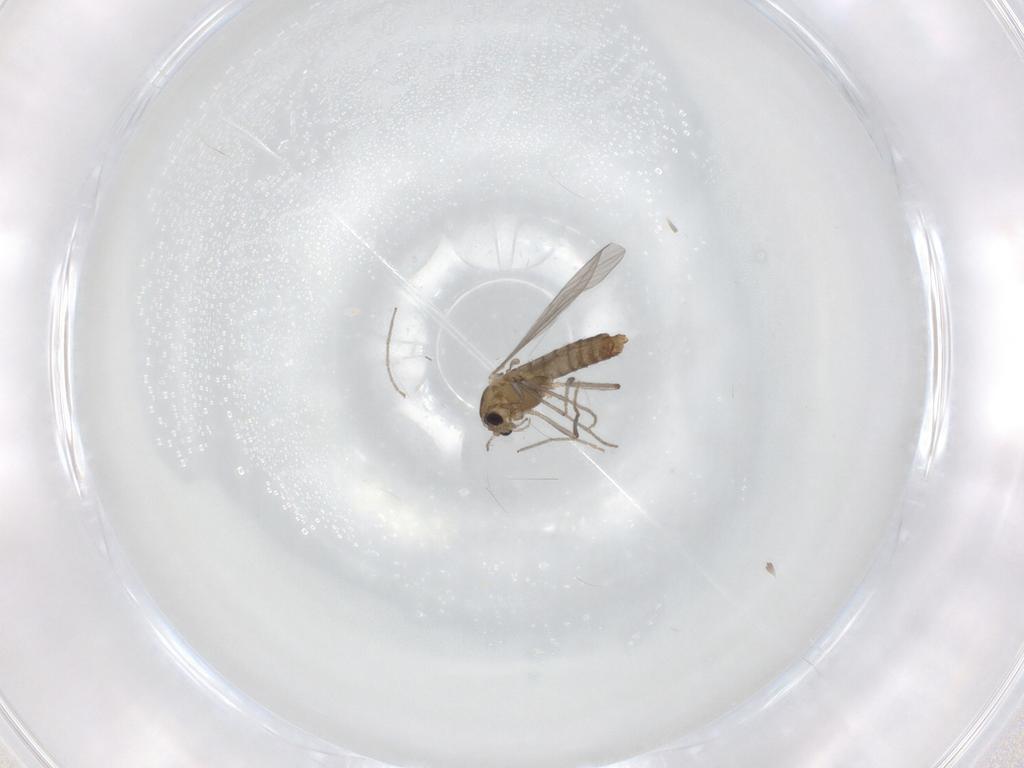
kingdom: Animalia
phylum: Arthropoda
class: Insecta
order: Diptera
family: Chironomidae
